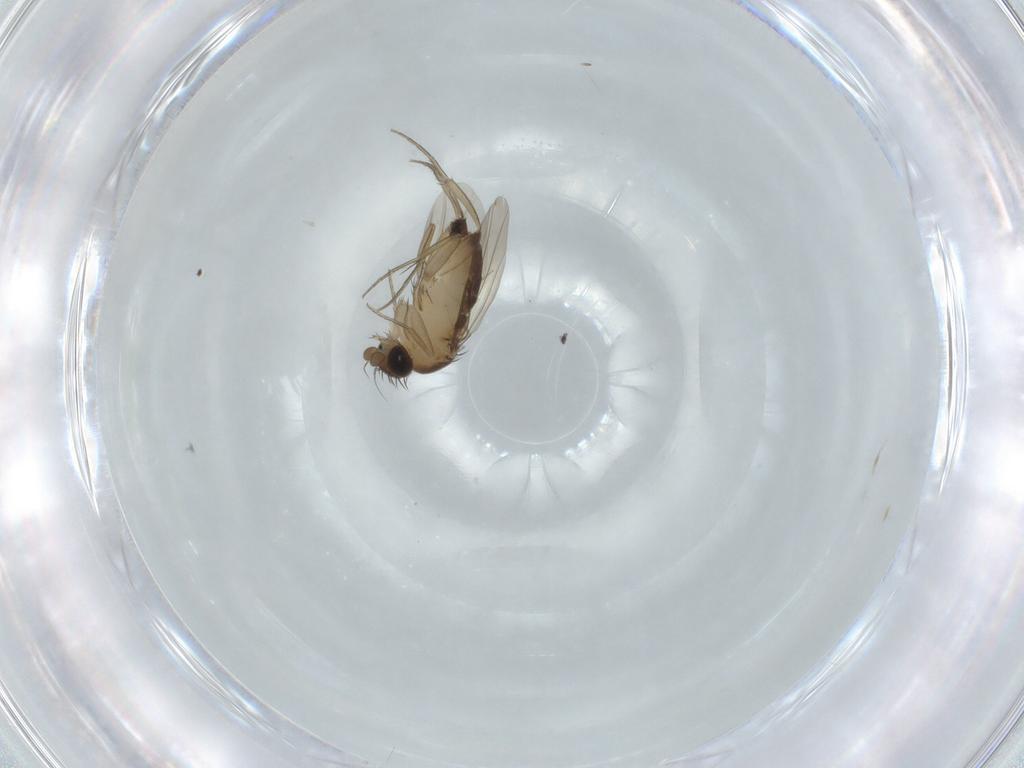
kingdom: Animalia
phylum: Arthropoda
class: Insecta
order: Diptera
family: Phoridae
